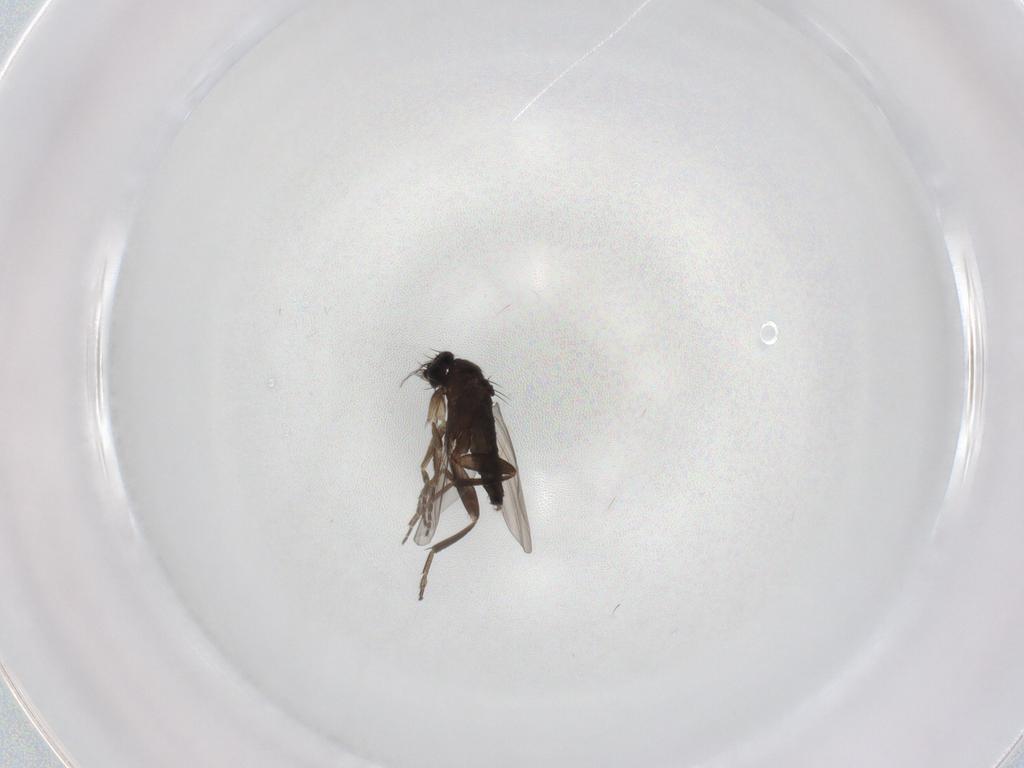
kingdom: Animalia
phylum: Arthropoda
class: Insecta
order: Diptera
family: Phoridae
